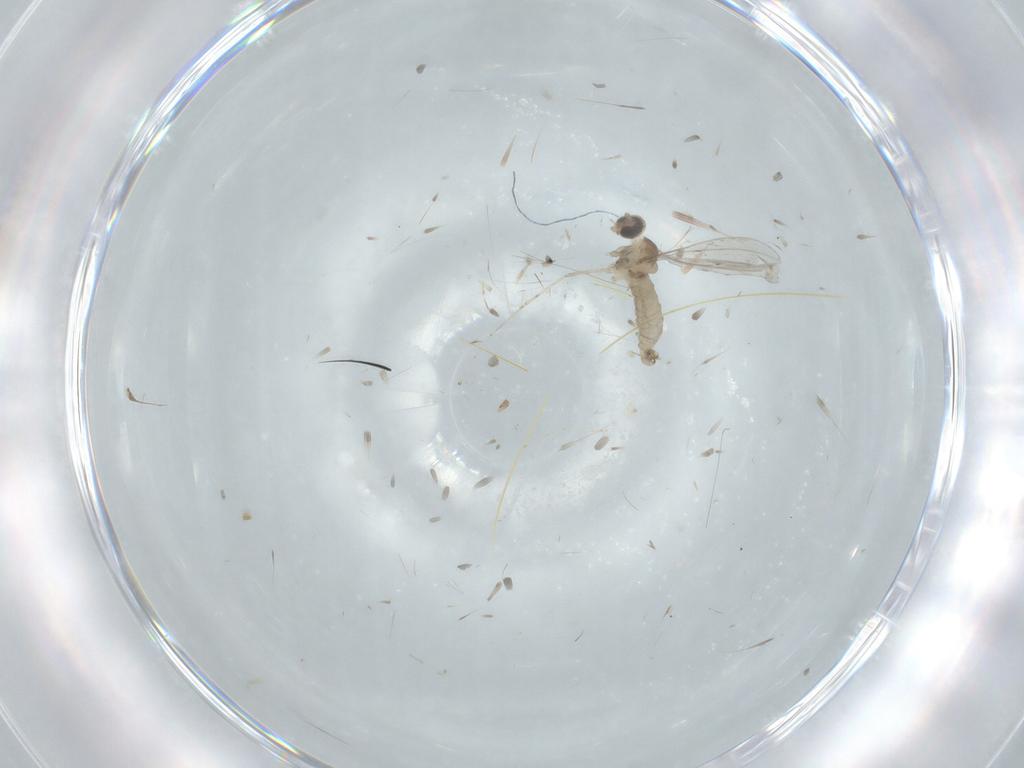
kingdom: Animalia
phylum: Arthropoda
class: Insecta
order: Diptera
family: Cecidomyiidae
